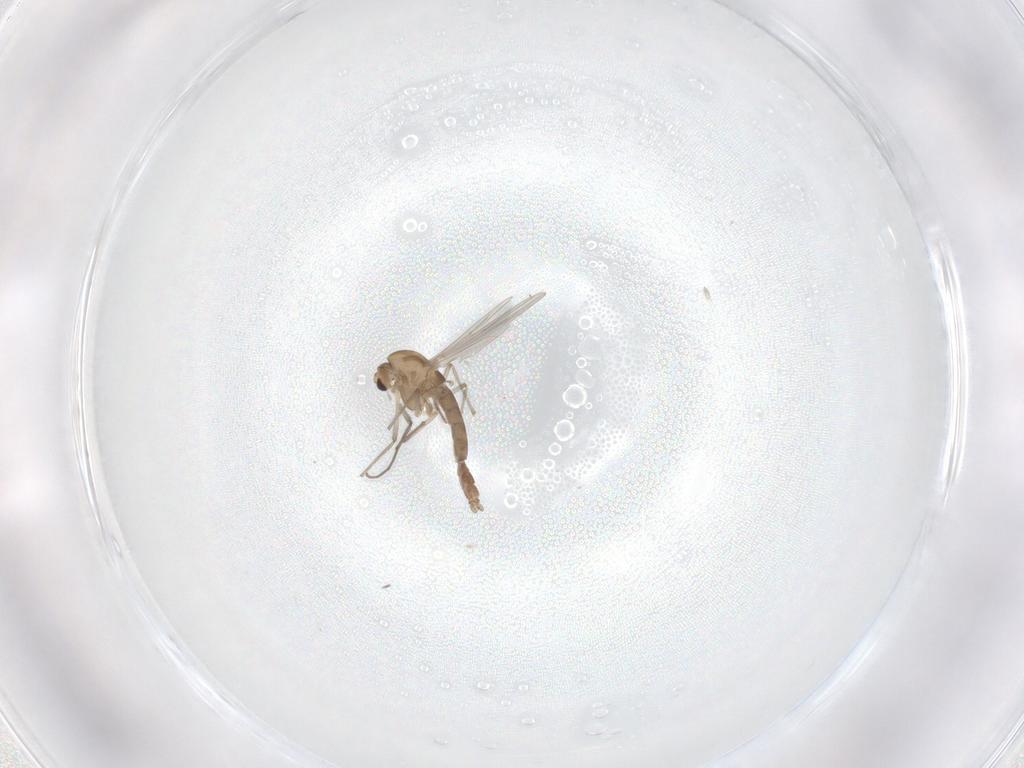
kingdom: Animalia
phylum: Arthropoda
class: Insecta
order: Diptera
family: Chironomidae
